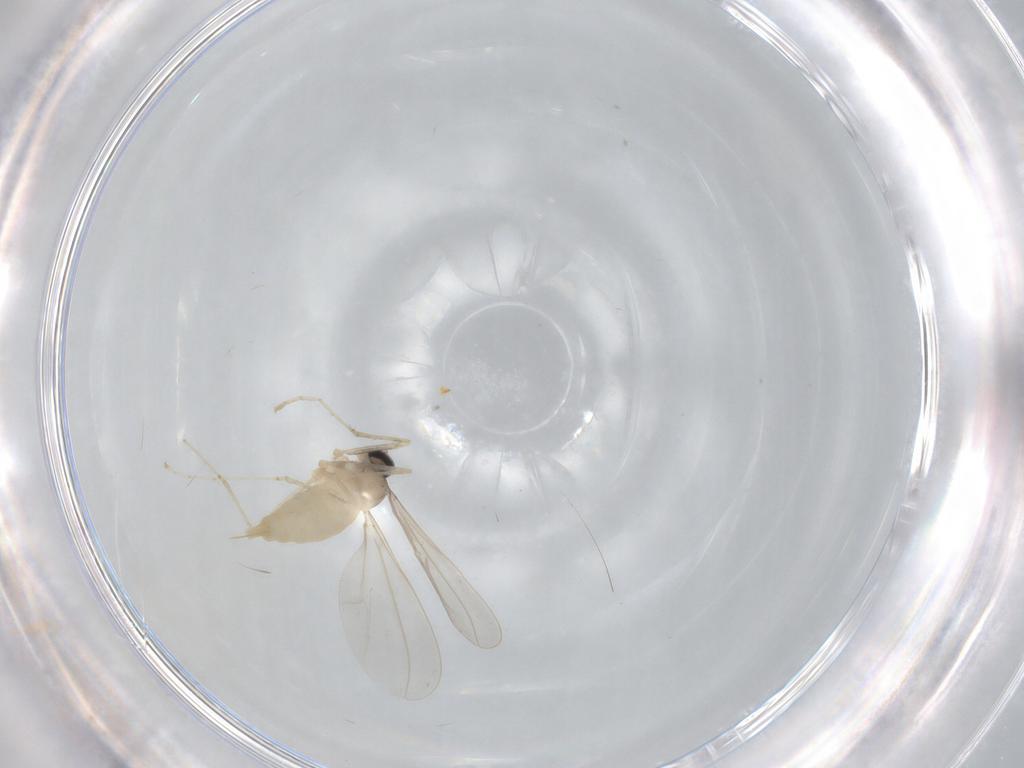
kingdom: Animalia
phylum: Arthropoda
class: Insecta
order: Diptera
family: Cecidomyiidae
